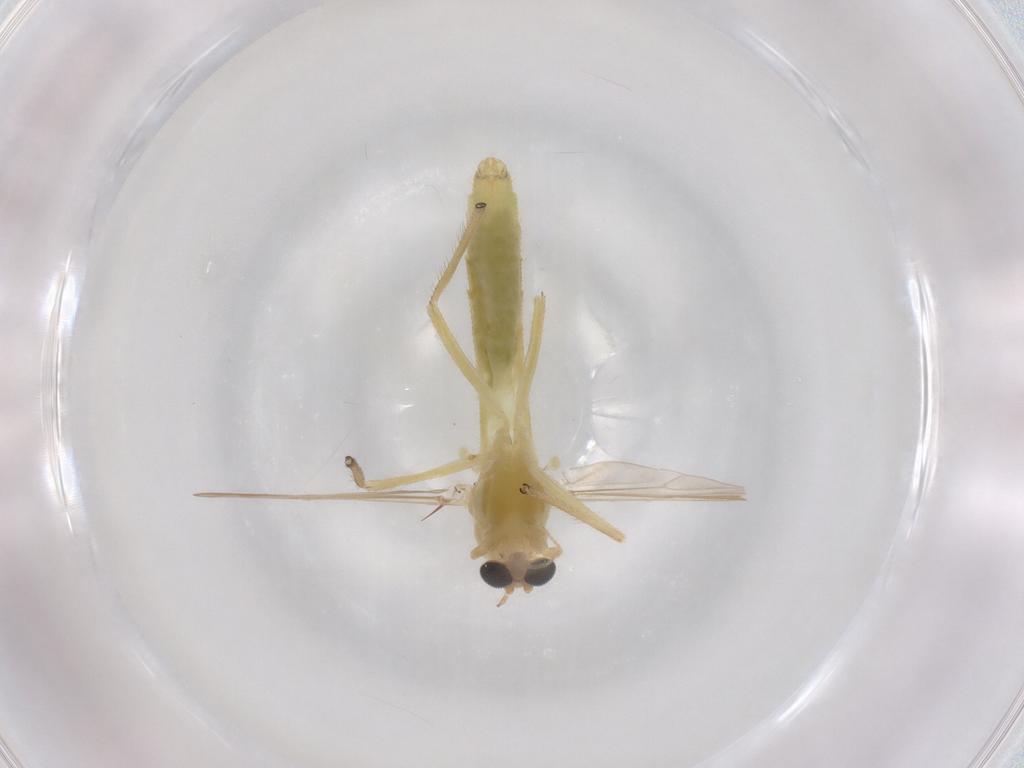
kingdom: Animalia
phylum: Arthropoda
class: Insecta
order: Diptera
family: Chironomidae
